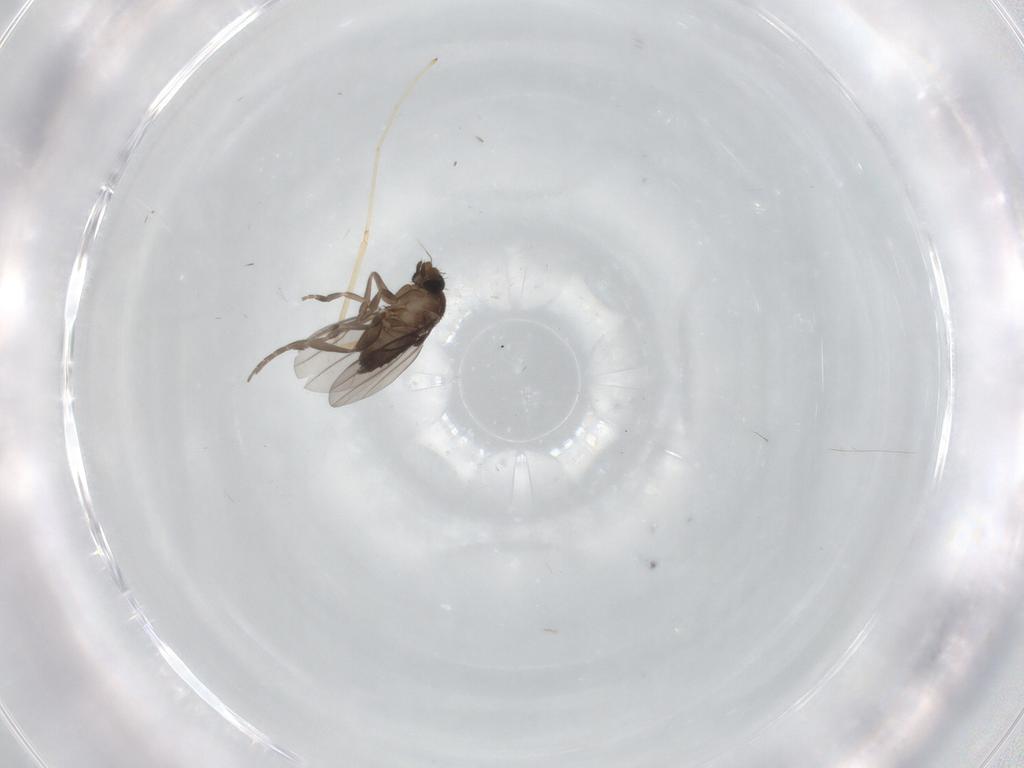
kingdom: Animalia
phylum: Arthropoda
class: Insecta
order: Diptera
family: Phoridae
